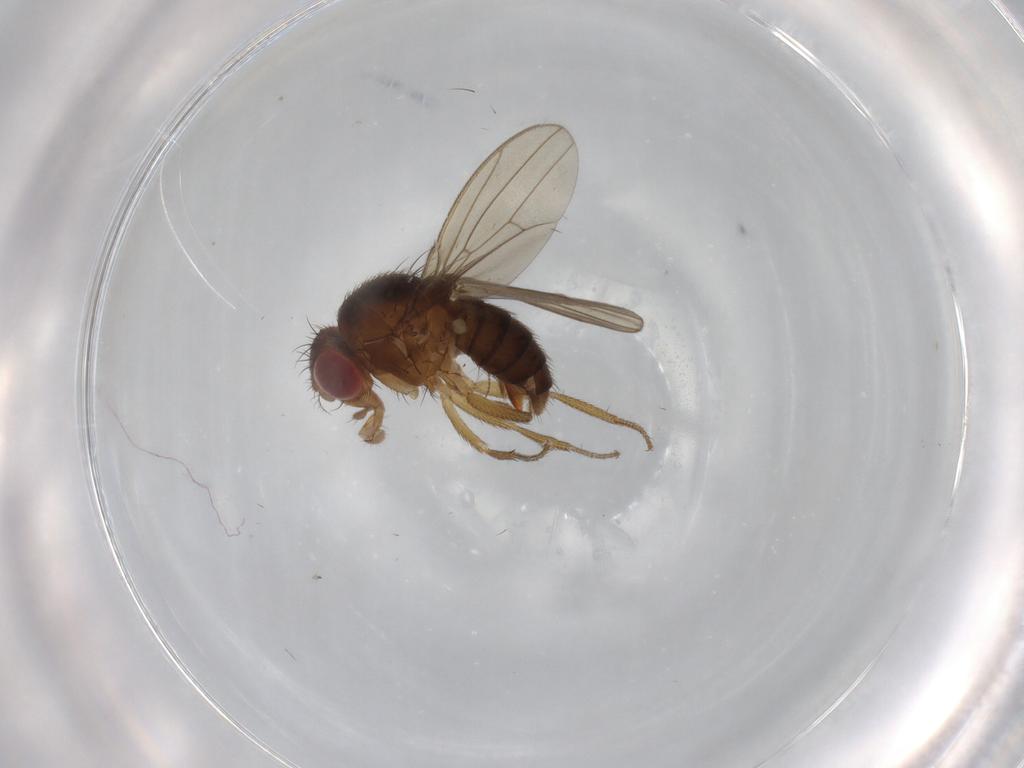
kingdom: Animalia
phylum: Arthropoda
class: Insecta
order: Diptera
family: Drosophilidae
